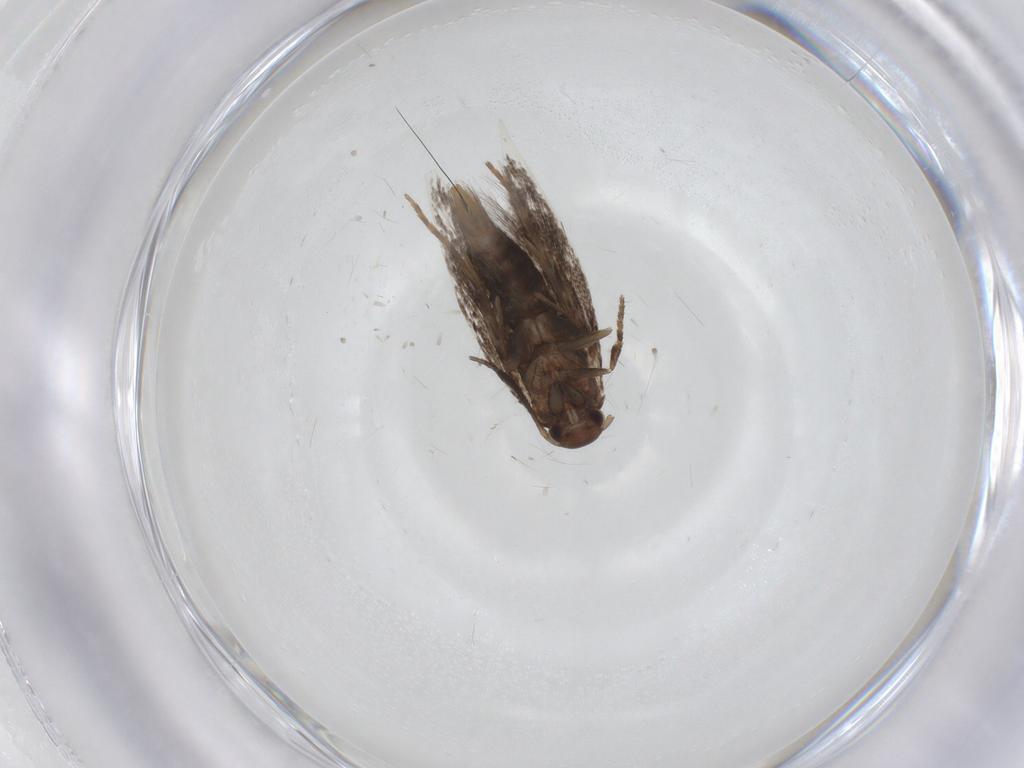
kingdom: Animalia
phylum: Arthropoda
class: Insecta
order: Lepidoptera
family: Elachistidae
